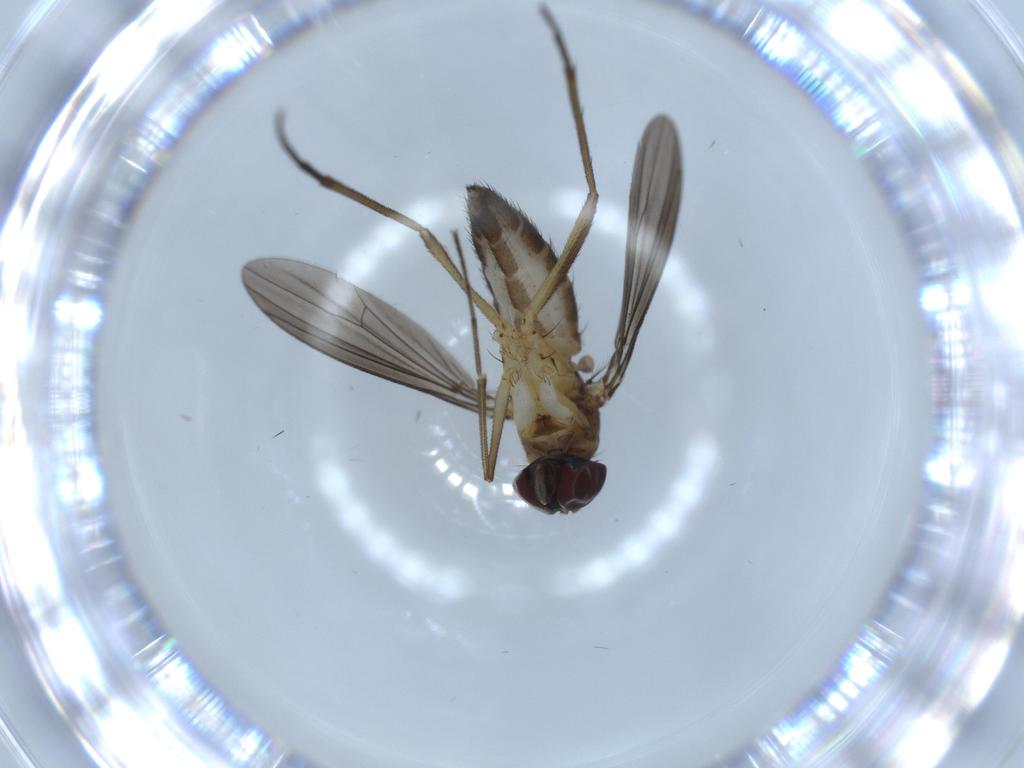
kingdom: Animalia
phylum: Arthropoda
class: Insecta
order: Diptera
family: Dolichopodidae
